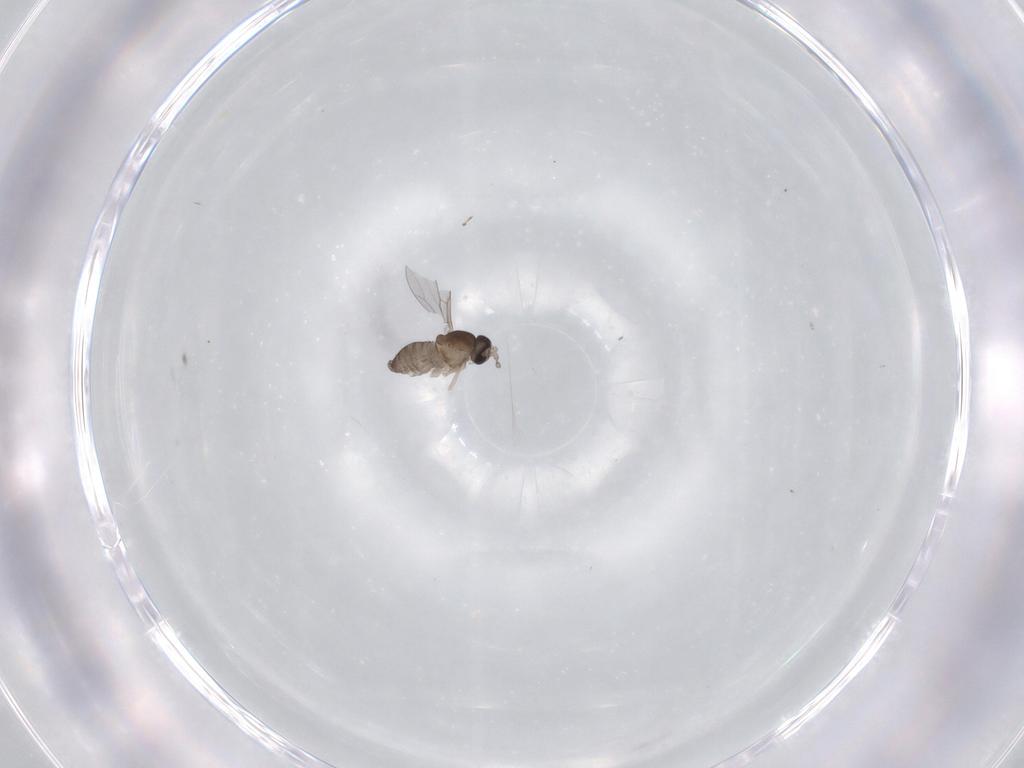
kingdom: Animalia
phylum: Arthropoda
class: Insecta
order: Diptera
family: Cecidomyiidae
